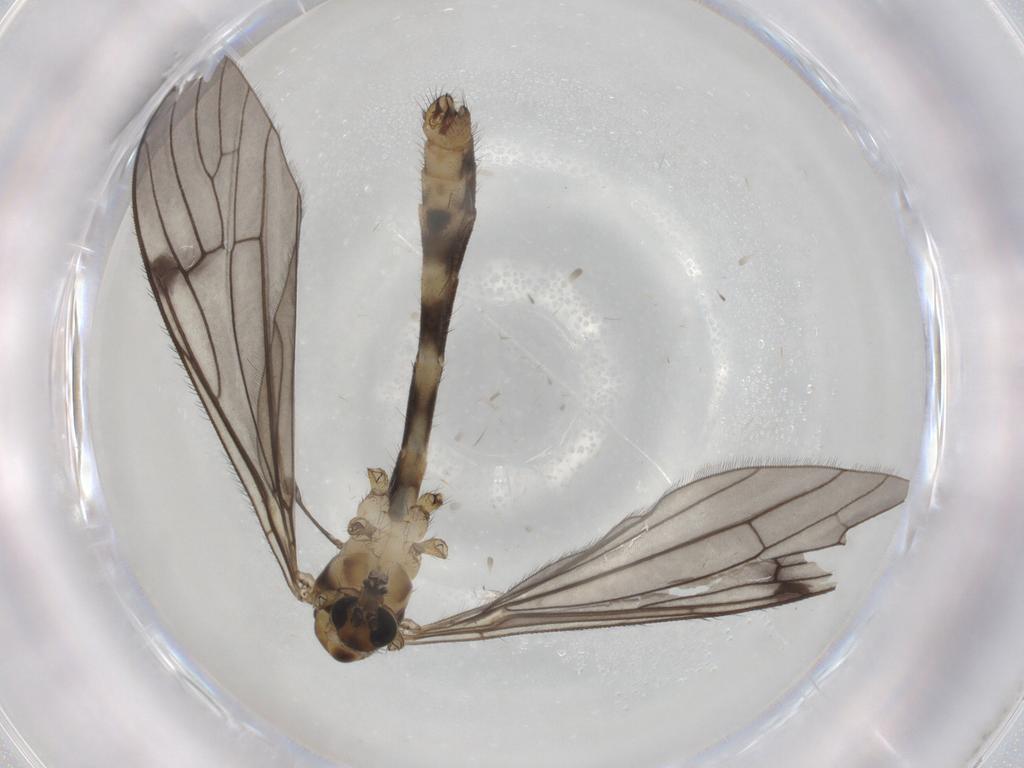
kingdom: Animalia
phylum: Arthropoda
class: Insecta
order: Diptera
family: Limoniidae
